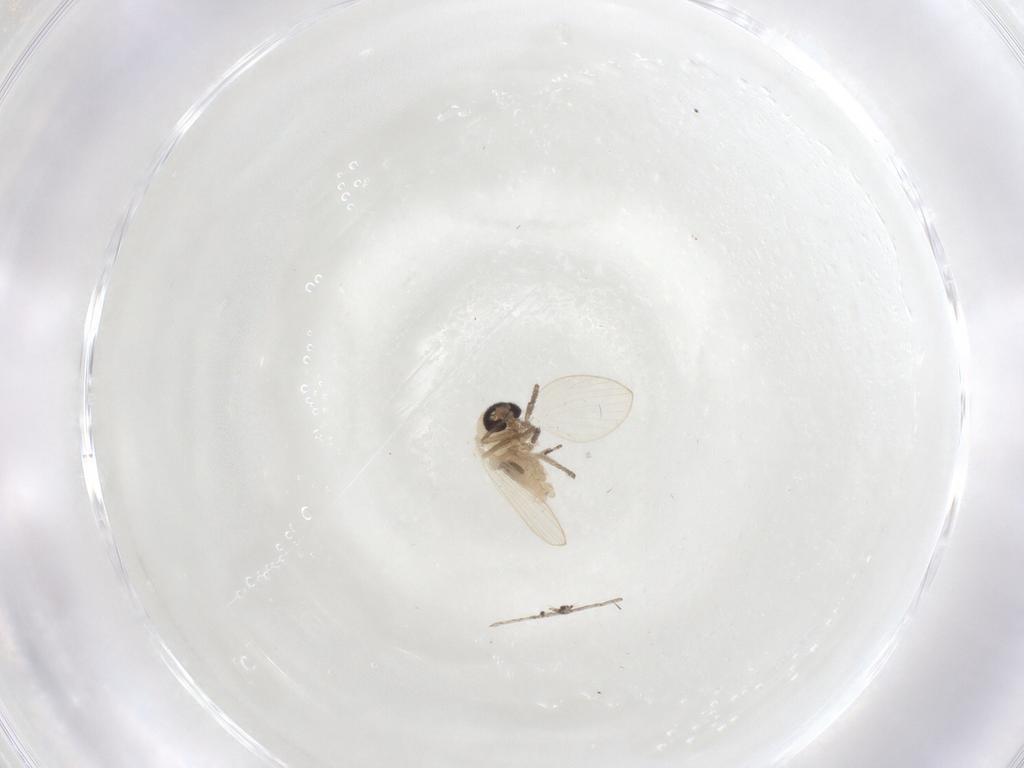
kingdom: Animalia
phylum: Arthropoda
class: Insecta
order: Diptera
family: Psychodidae
